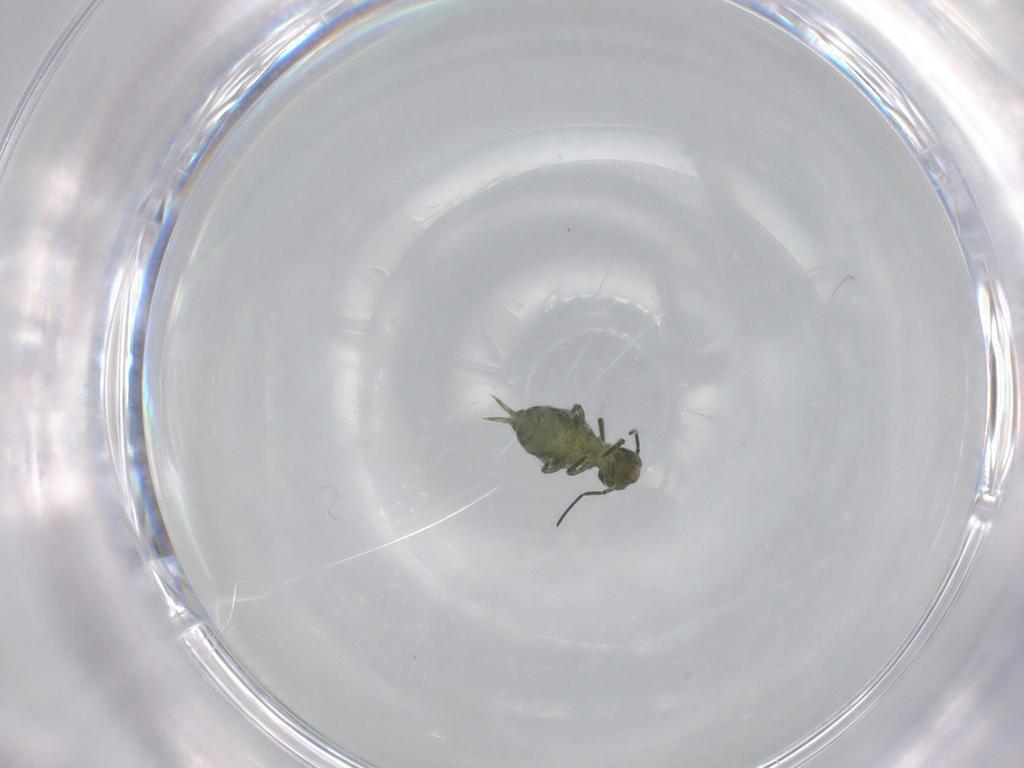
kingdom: Animalia
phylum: Arthropoda
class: Collembola
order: Symphypleona
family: Sminthuridae
